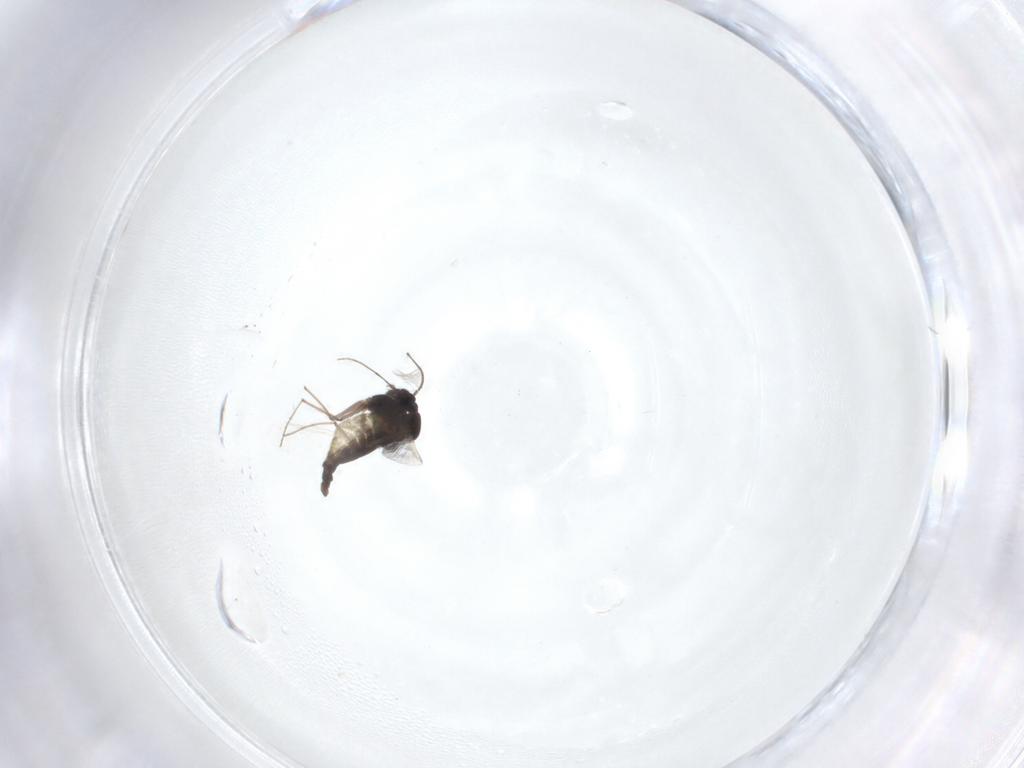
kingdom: Animalia
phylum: Arthropoda
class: Insecta
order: Diptera
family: Chironomidae
